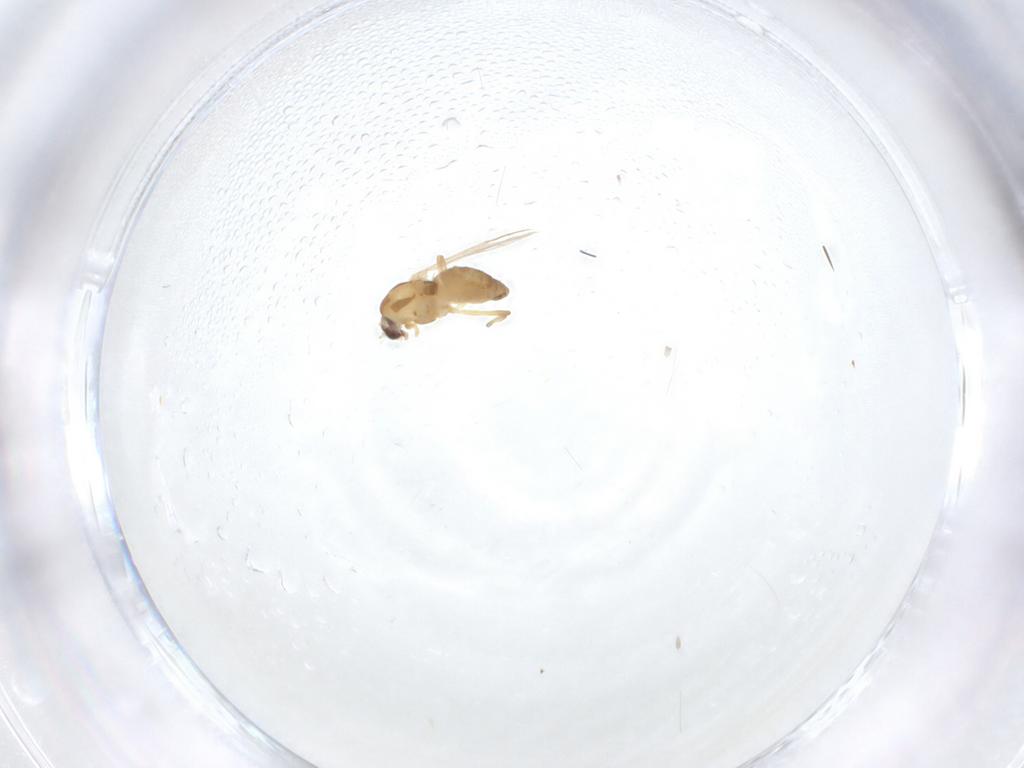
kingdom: Animalia
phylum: Arthropoda
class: Insecta
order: Diptera
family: Chironomidae
